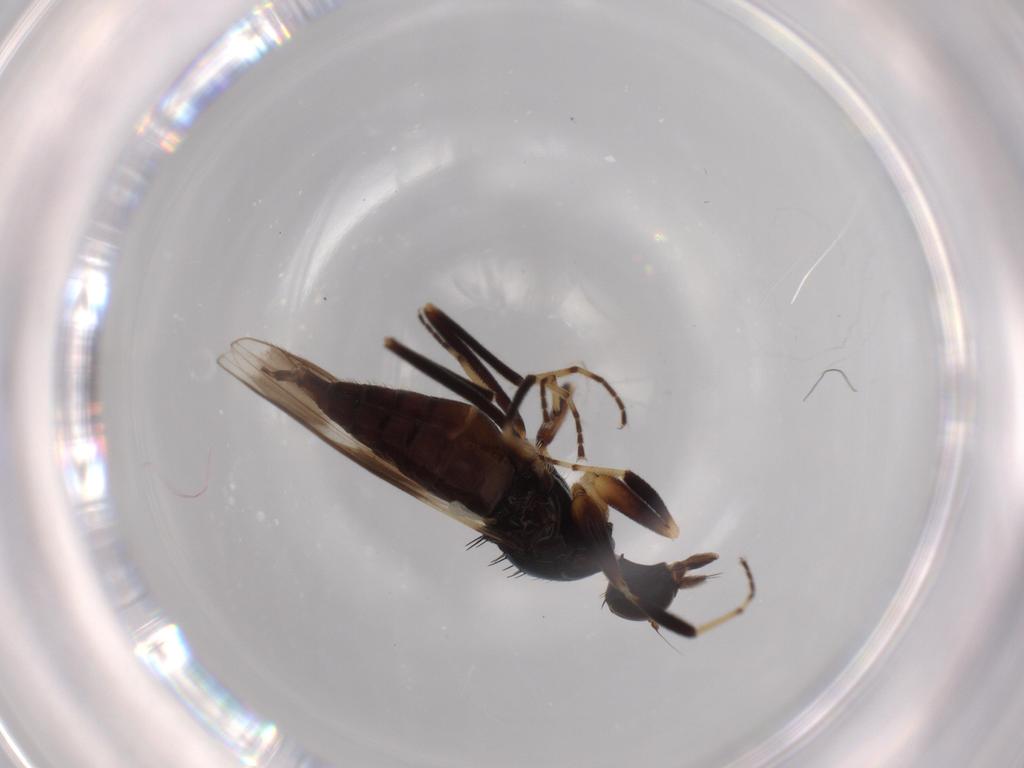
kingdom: Animalia
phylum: Arthropoda
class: Insecta
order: Diptera
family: Hybotidae
